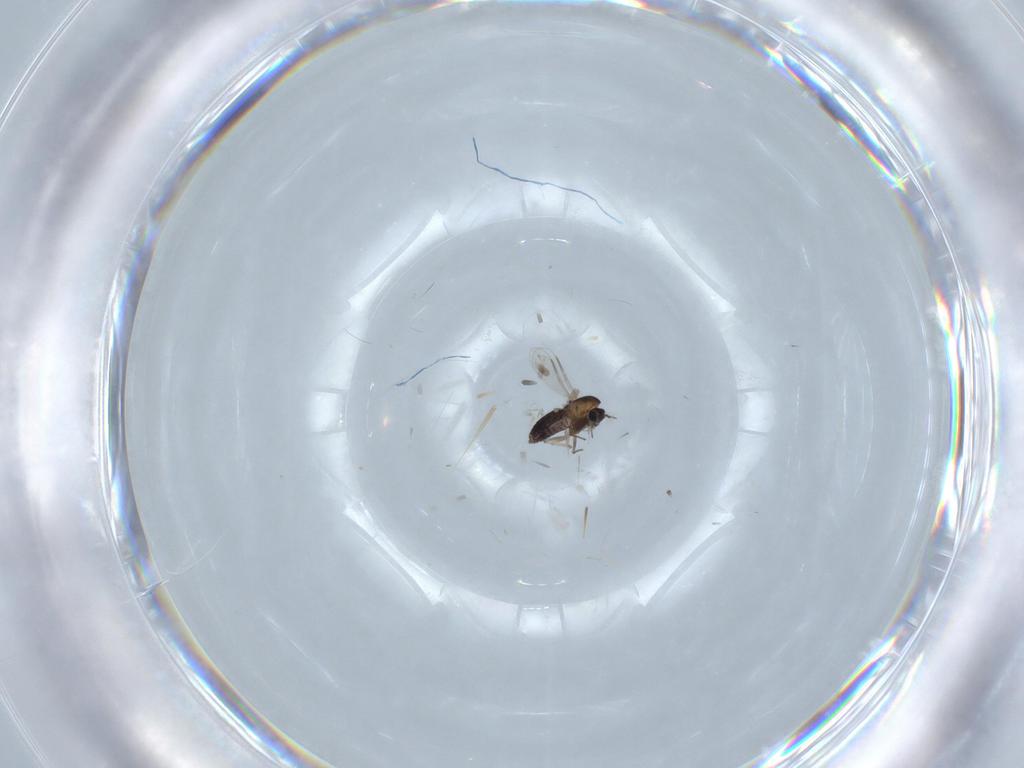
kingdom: Animalia
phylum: Arthropoda
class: Insecta
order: Diptera
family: Chironomidae
